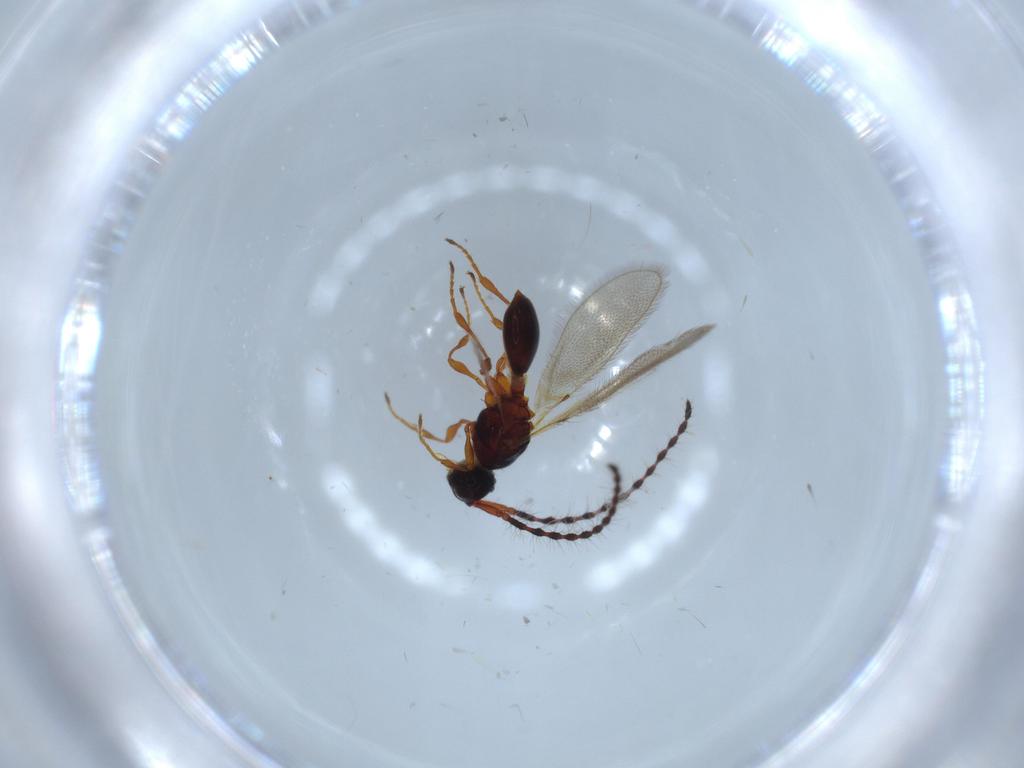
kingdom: Animalia
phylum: Arthropoda
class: Insecta
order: Hymenoptera
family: Diapriidae
